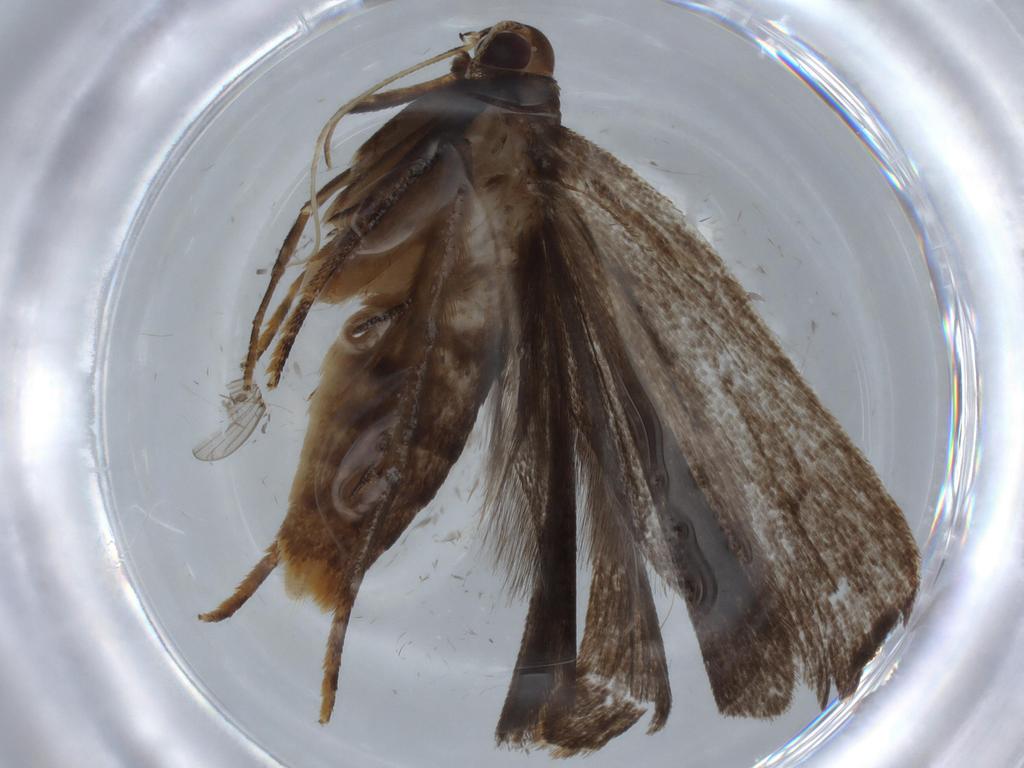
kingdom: Animalia
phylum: Arthropoda
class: Insecta
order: Lepidoptera
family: Gelechiidae
